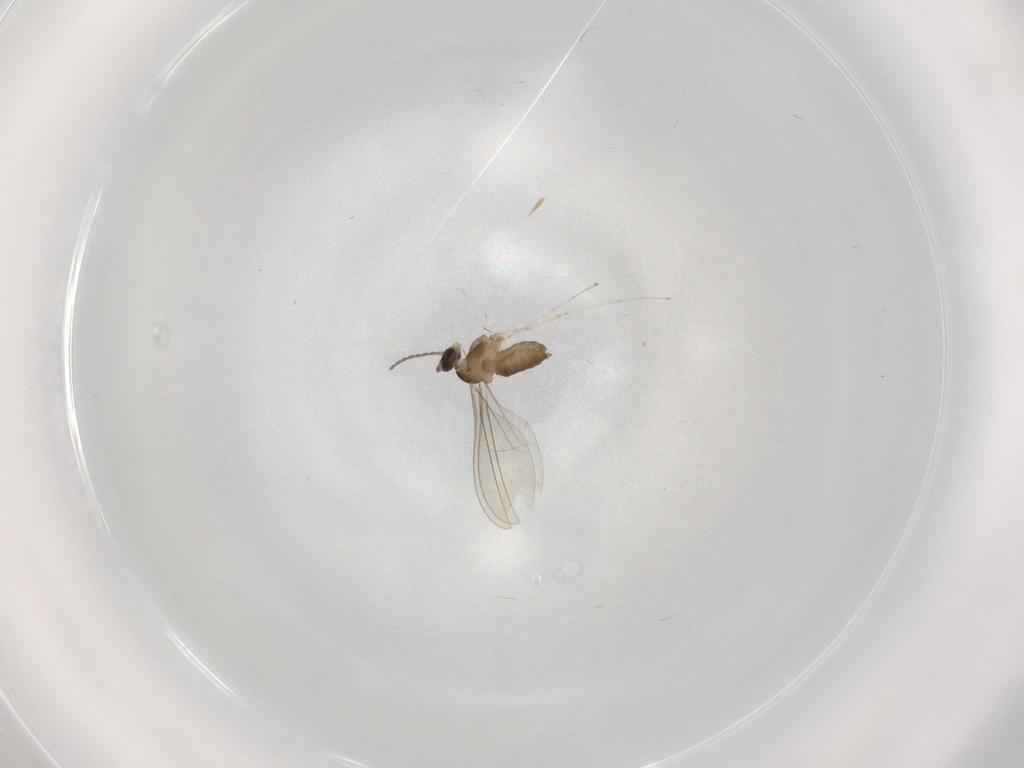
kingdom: Animalia
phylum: Arthropoda
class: Insecta
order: Diptera
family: Cecidomyiidae
